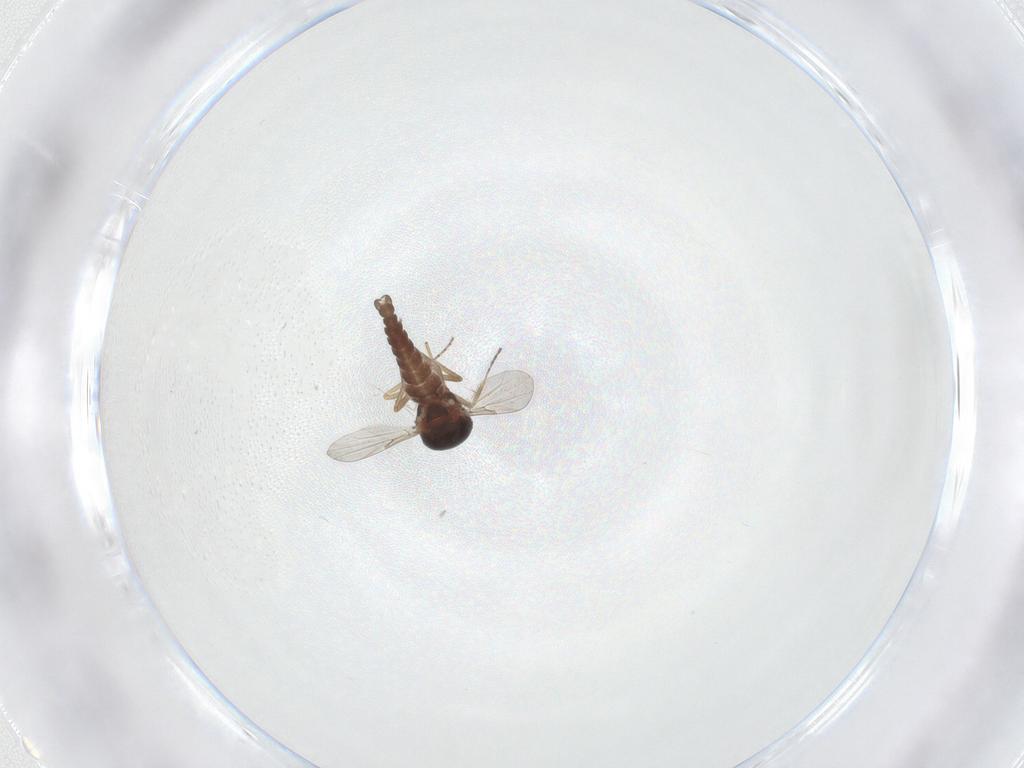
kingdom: Animalia
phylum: Arthropoda
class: Insecta
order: Diptera
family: Ceratopogonidae
